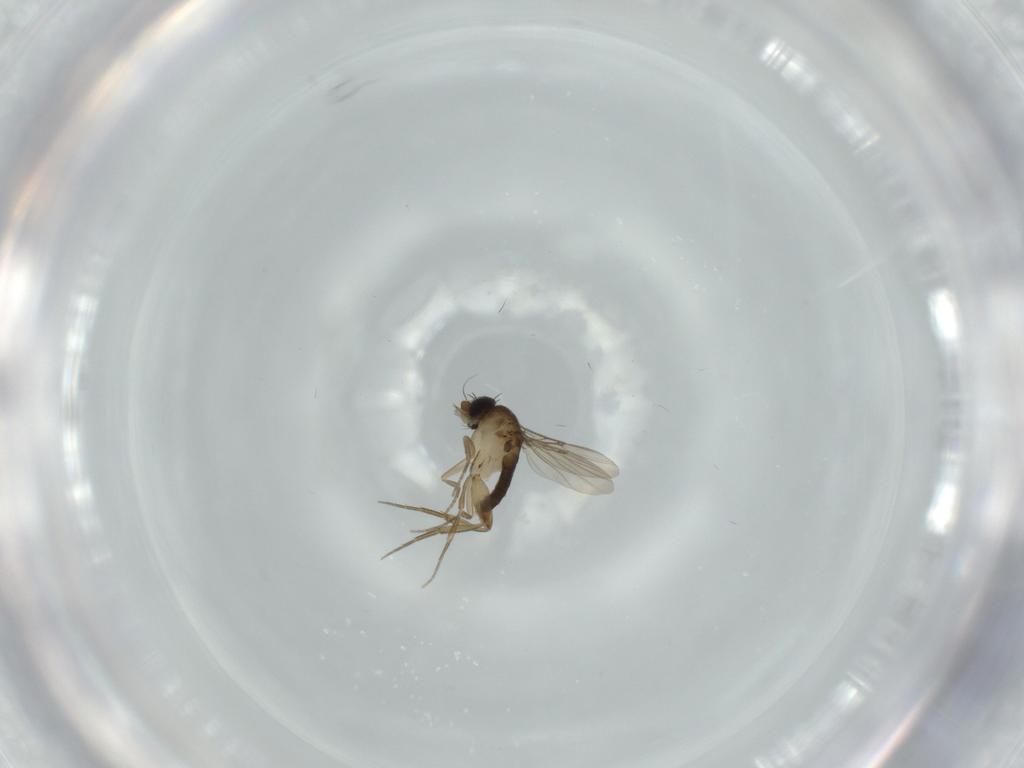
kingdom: Animalia
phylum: Arthropoda
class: Insecta
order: Diptera
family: Phoridae
